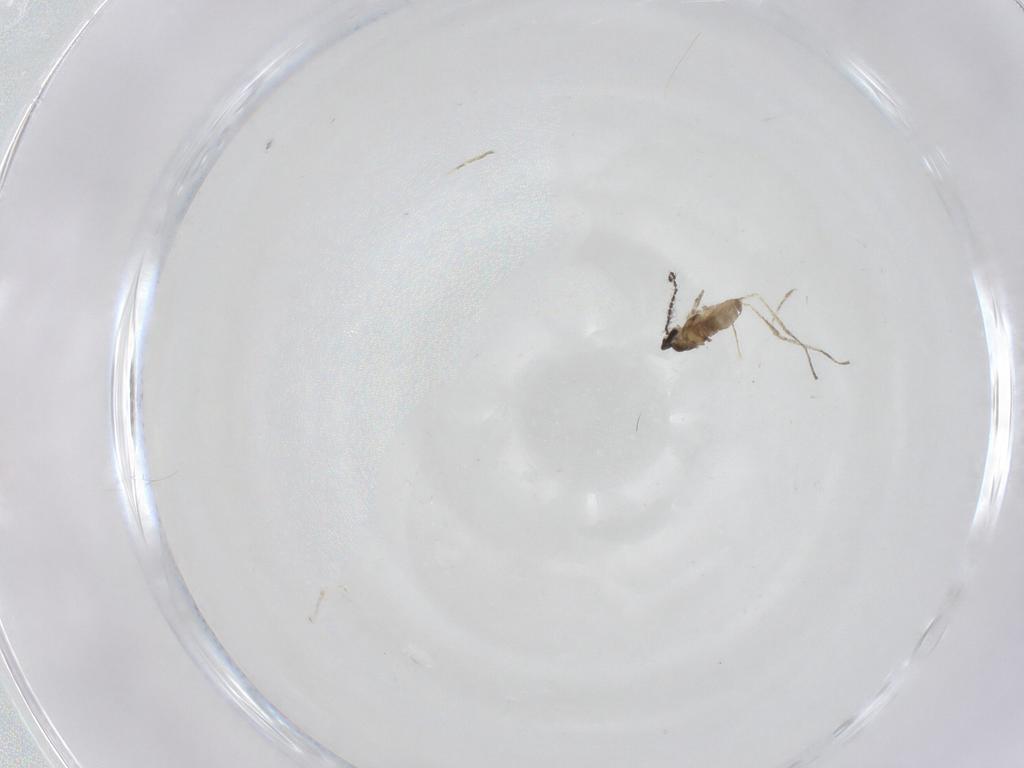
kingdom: Animalia
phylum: Arthropoda
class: Insecta
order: Diptera
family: Cecidomyiidae
